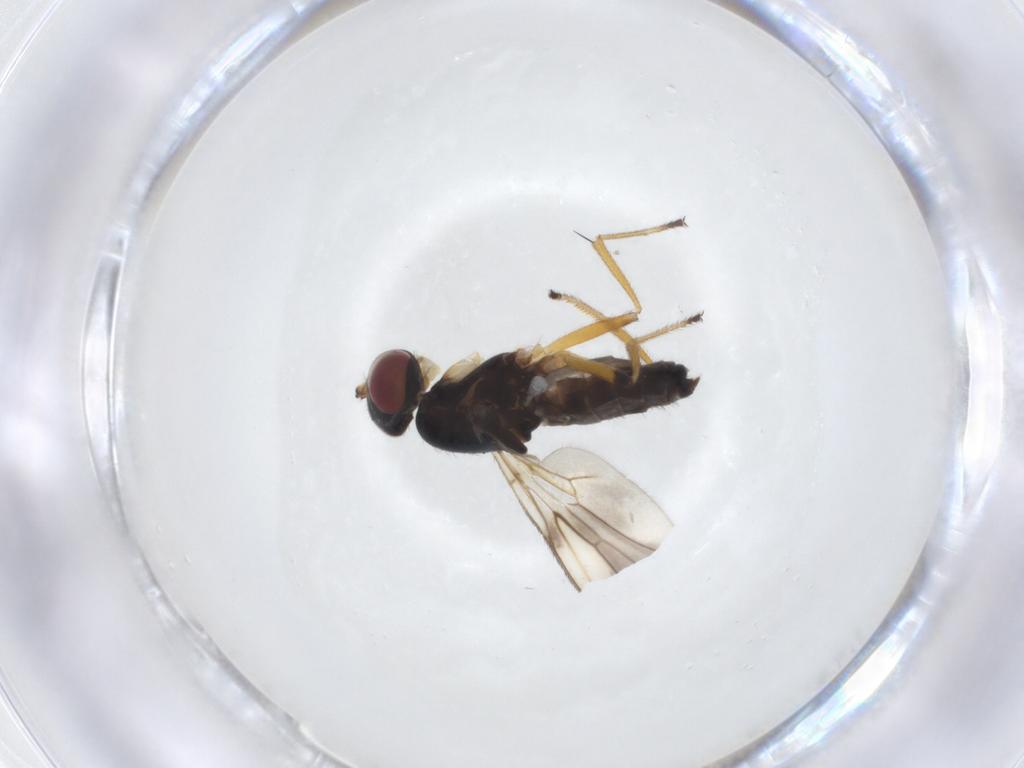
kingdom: Animalia
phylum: Arthropoda
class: Insecta
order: Diptera
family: Periscelididae
